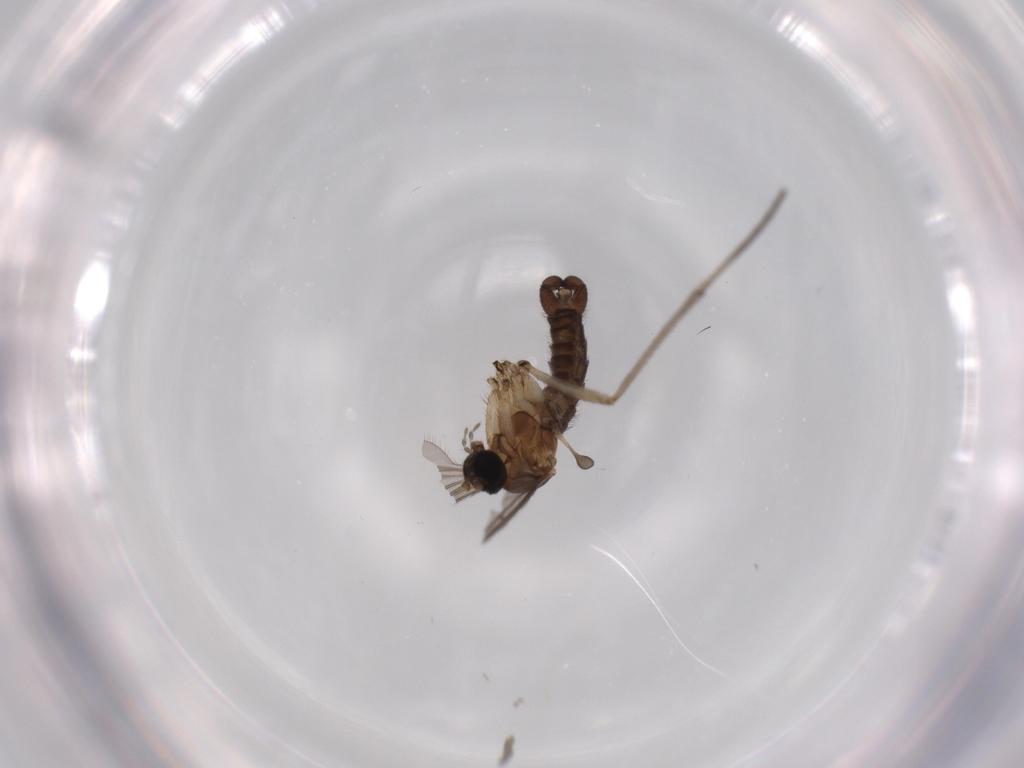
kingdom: Animalia
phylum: Arthropoda
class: Insecta
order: Diptera
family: Sciaridae
